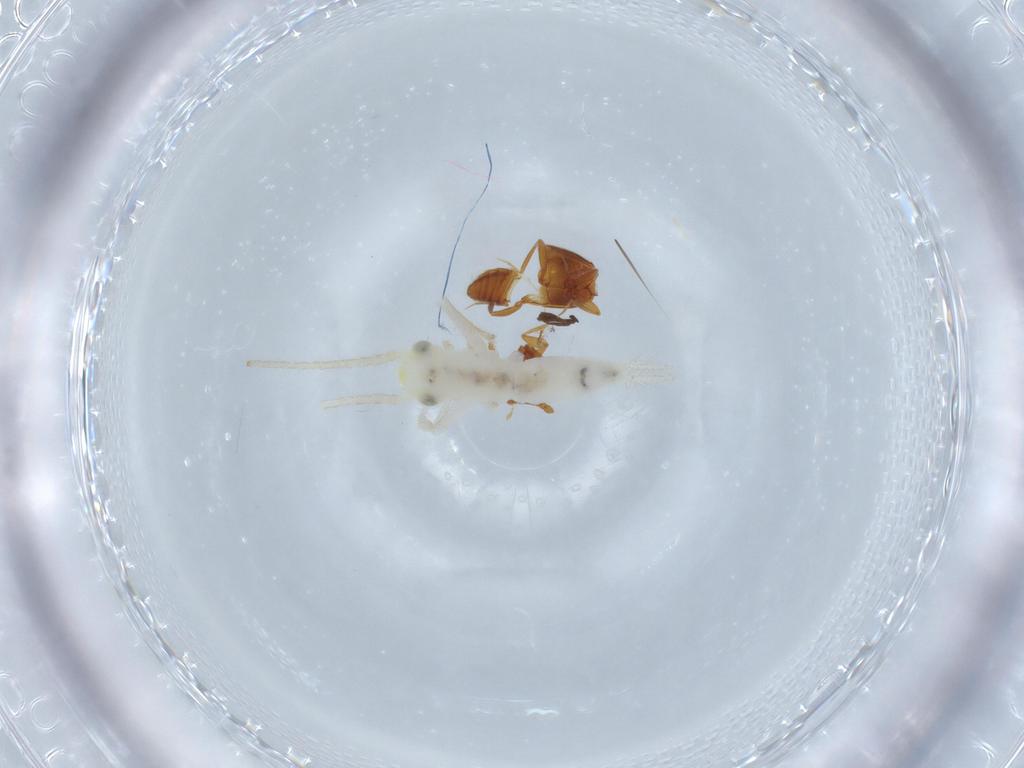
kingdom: Animalia
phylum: Arthropoda
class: Insecta
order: Orthoptera
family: Trigonidiidae
